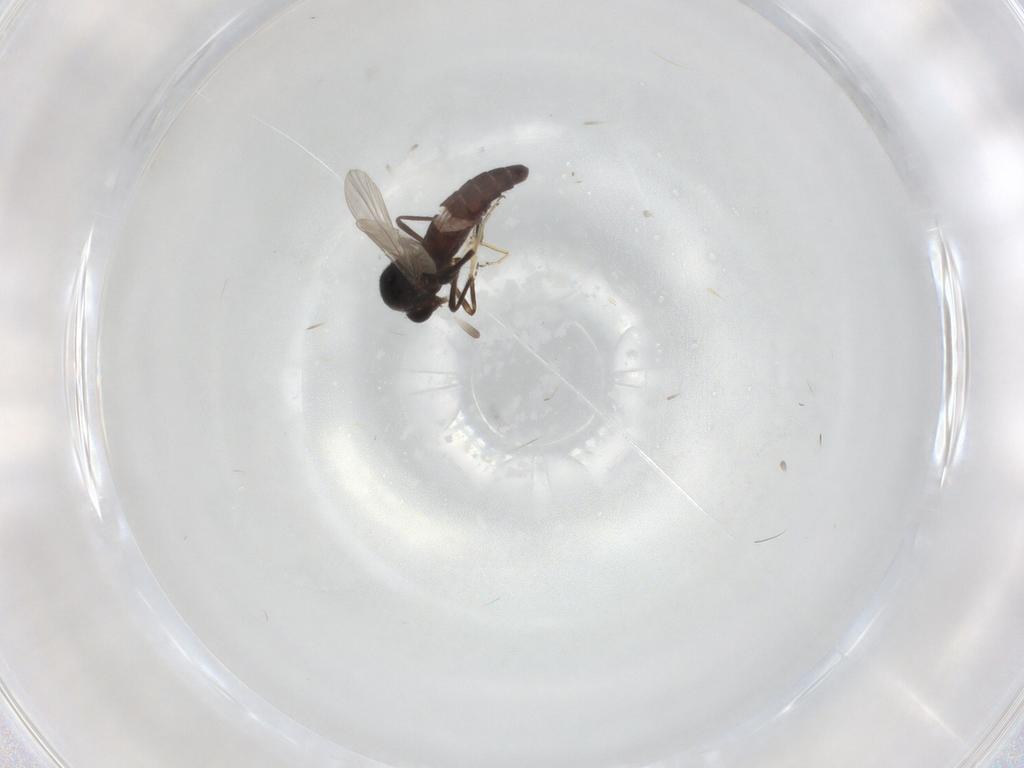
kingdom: Animalia
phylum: Arthropoda
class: Insecta
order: Diptera
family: Ceratopogonidae
